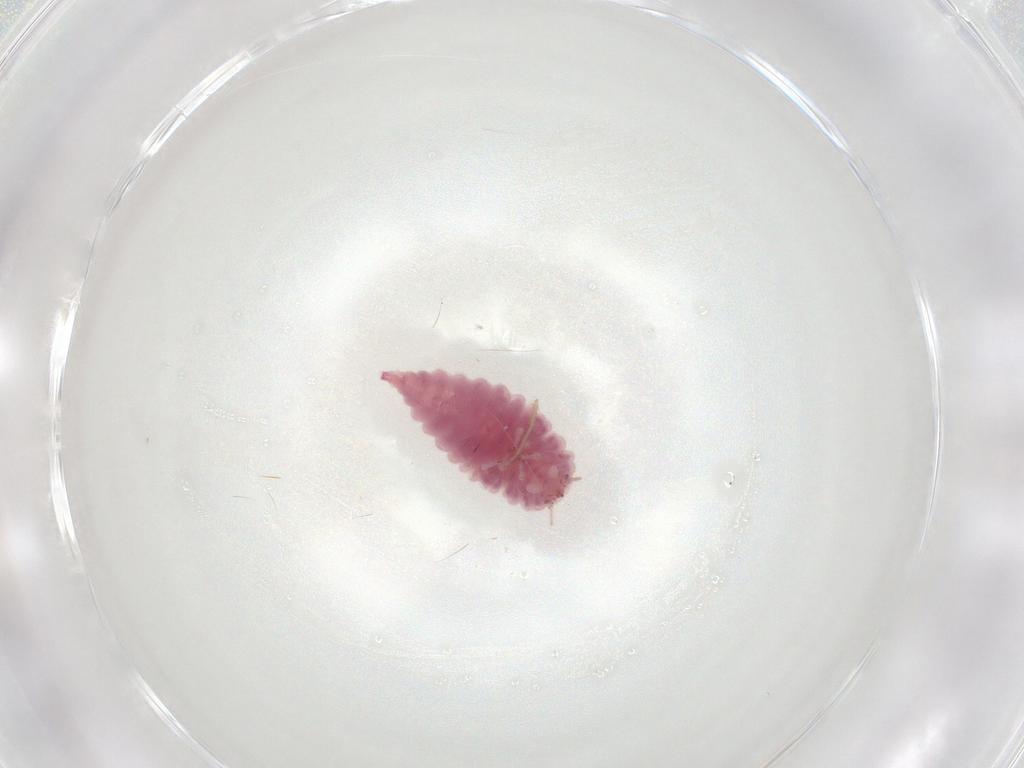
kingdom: Animalia
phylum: Arthropoda
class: Insecta
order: Neuroptera
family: Coniopterygidae
